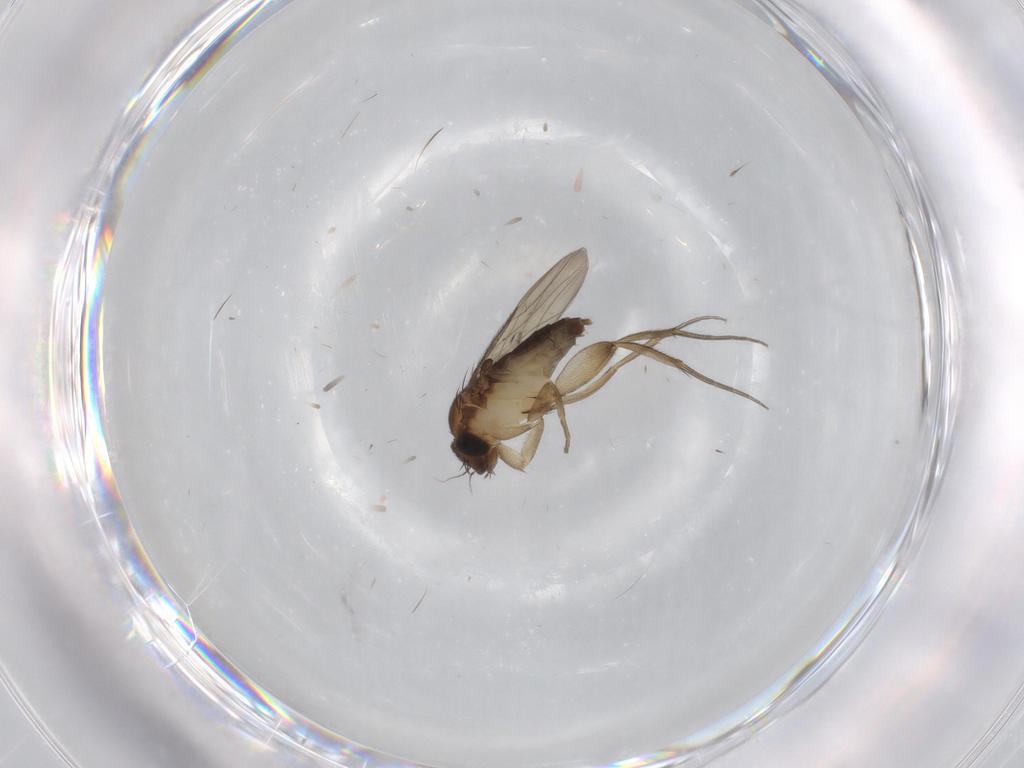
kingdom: Animalia
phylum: Arthropoda
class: Insecta
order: Diptera
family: Phoridae
